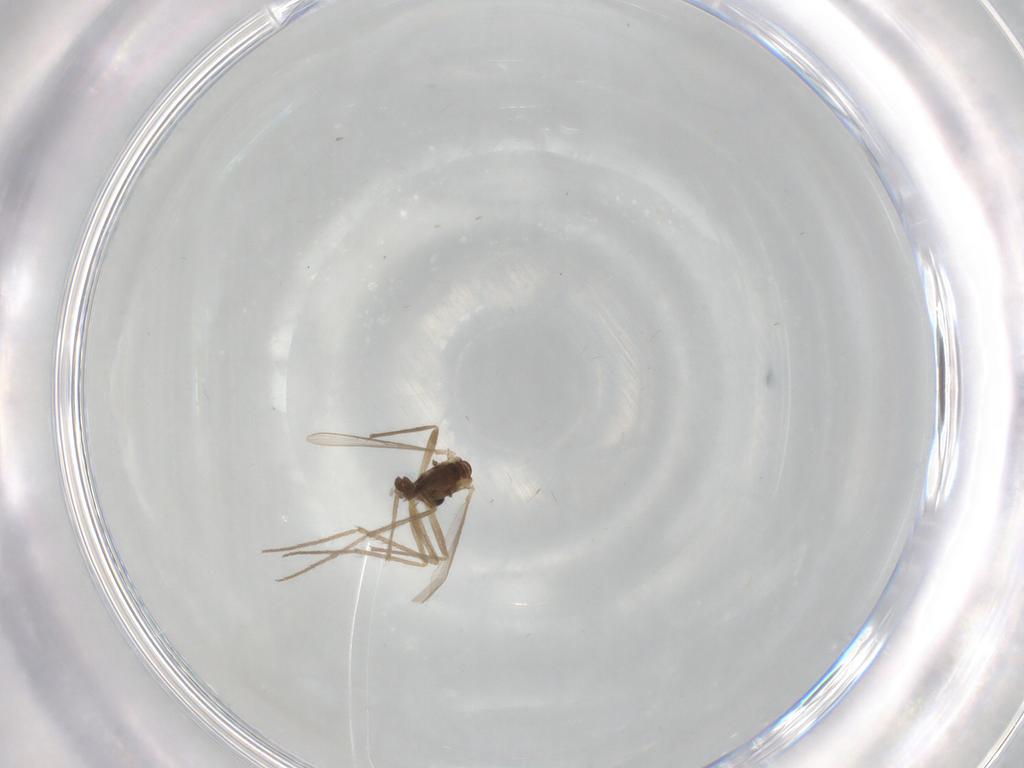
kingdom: Animalia
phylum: Arthropoda
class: Insecta
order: Diptera
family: Chironomidae
